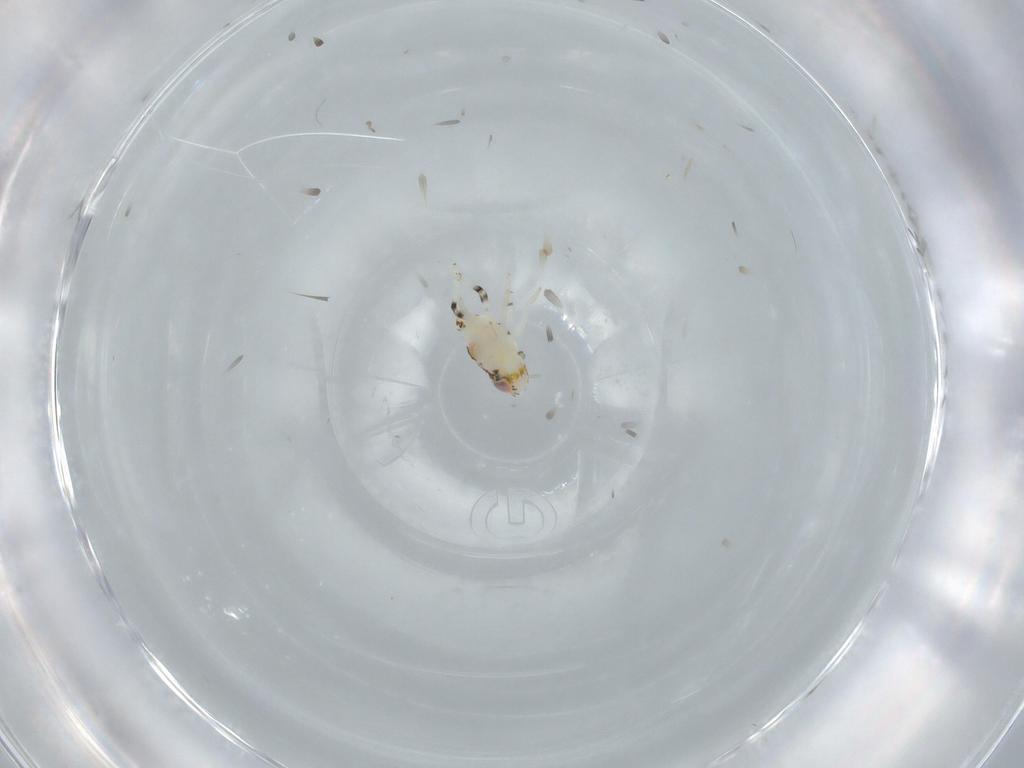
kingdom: Animalia
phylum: Arthropoda
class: Insecta
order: Hemiptera
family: Nogodinidae
